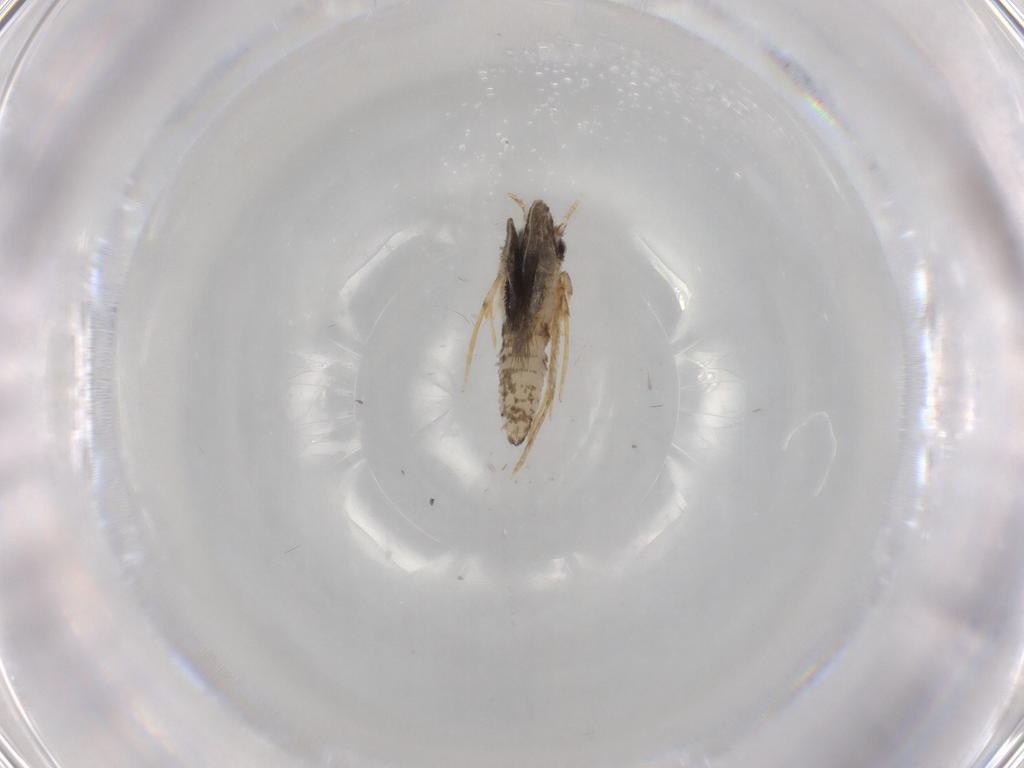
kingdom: Animalia
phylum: Arthropoda
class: Insecta
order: Lepidoptera
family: Psychidae
